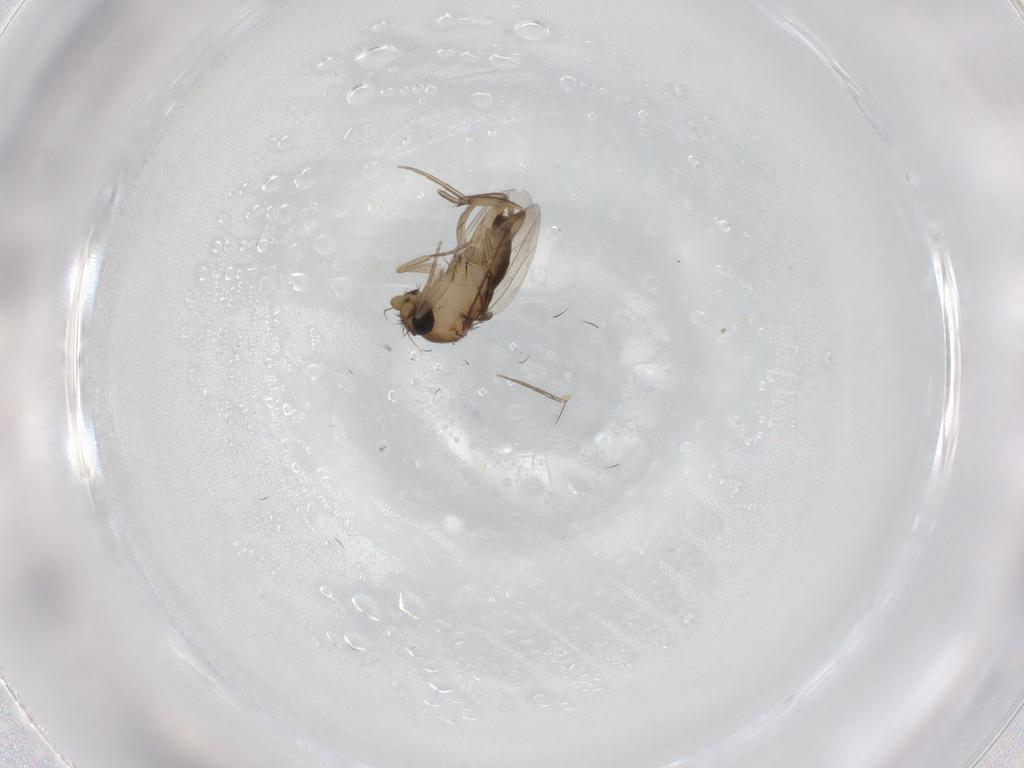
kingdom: Animalia
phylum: Arthropoda
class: Insecta
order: Diptera
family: Phoridae
